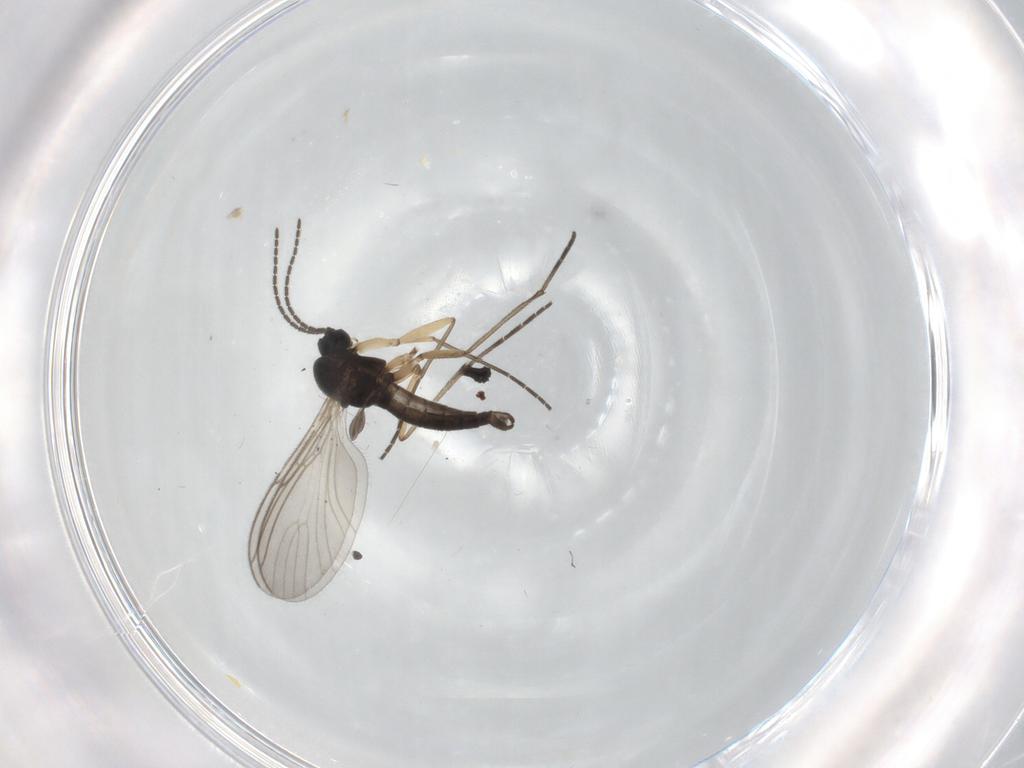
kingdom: Animalia
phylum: Arthropoda
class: Insecta
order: Diptera
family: Sciaridae
